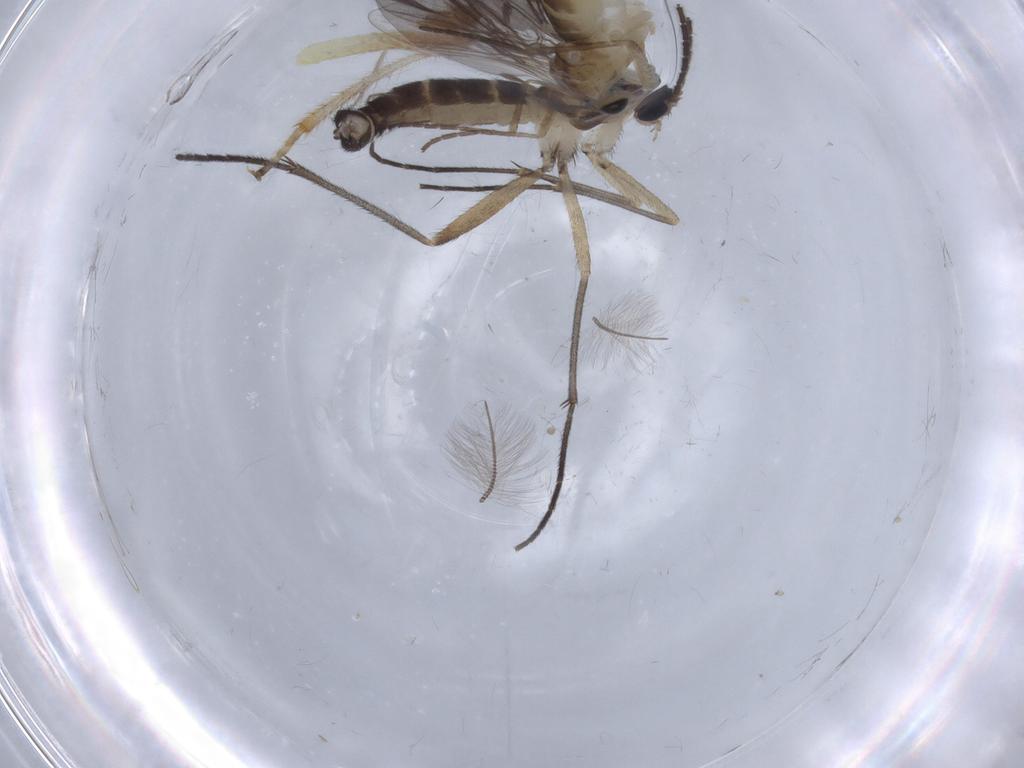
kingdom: Animalia
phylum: Arthropoda
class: Insecta
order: Diptera
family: Cecidomyiidae
